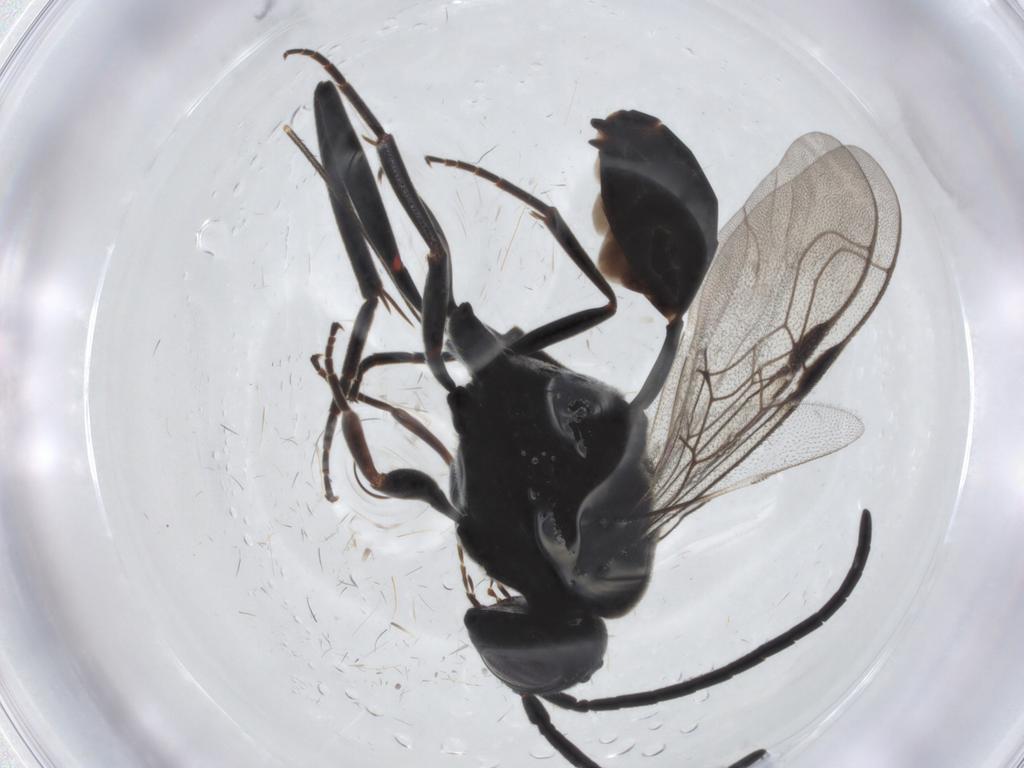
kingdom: Animalia
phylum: Arthropoda
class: Insecta
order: Hymenoptera
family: Evaniidae
